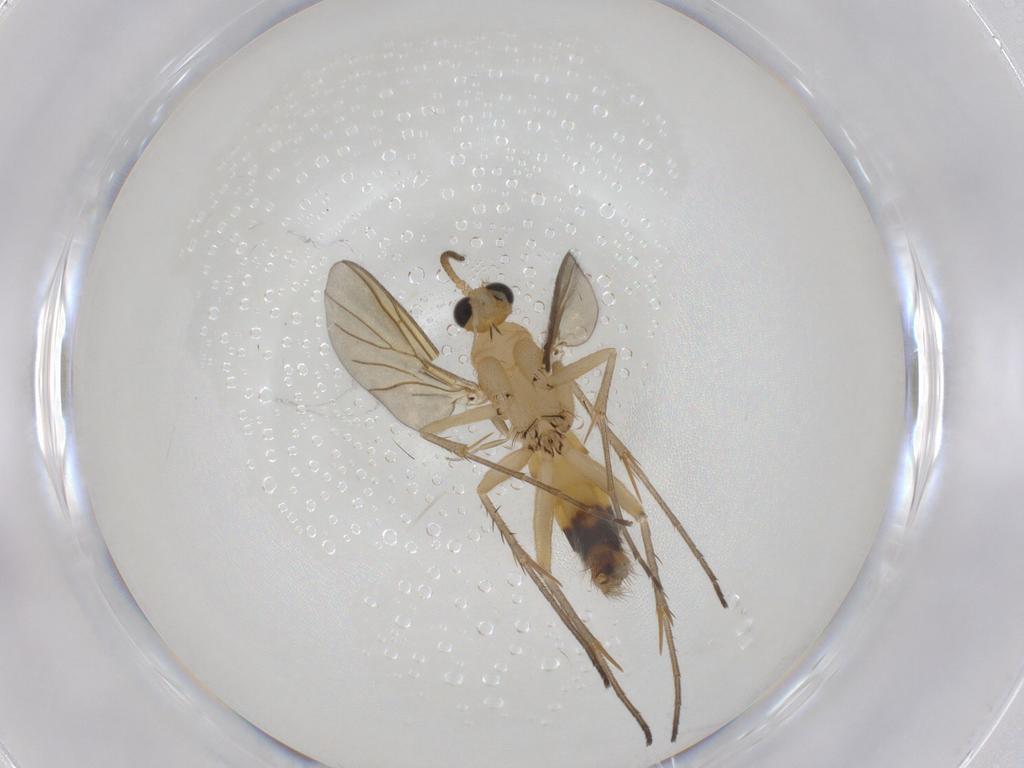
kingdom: Animalia
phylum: Arthropoda
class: Insecta
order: Diptera
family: Mycetophilidae
